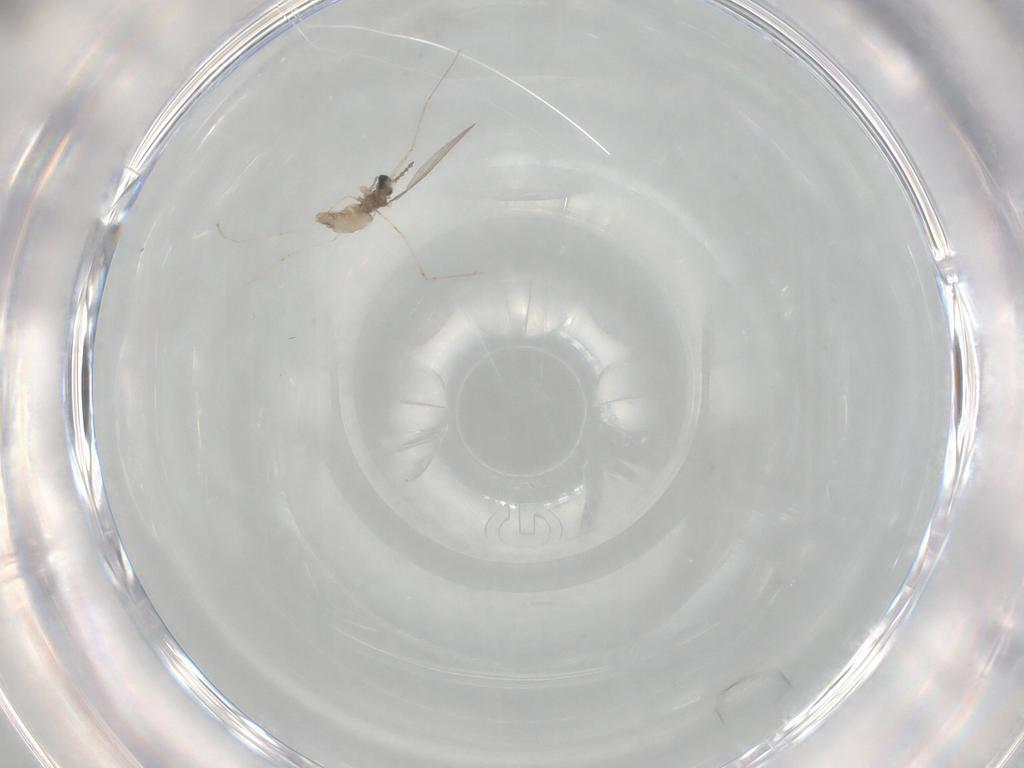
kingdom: Animalia
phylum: Arthropoda
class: Insecta
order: Diptera
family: Cecidomyiidae
